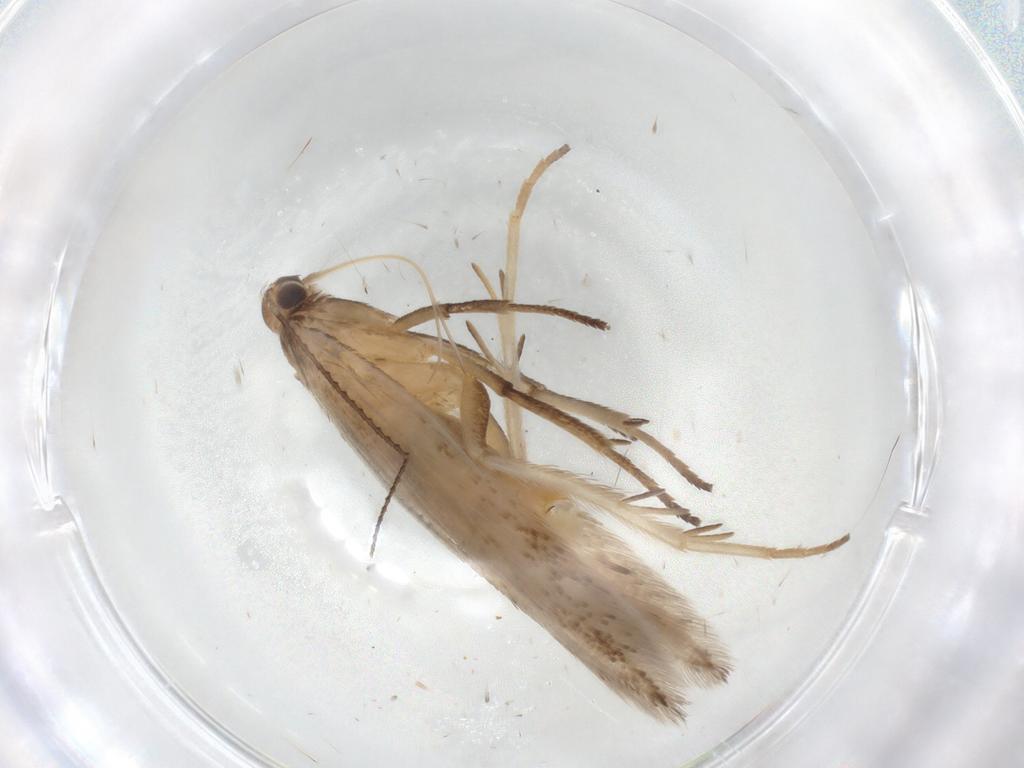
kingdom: Animalia
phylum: Arthropoda
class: Insecta
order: Lepidoptera
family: Gelechiidae
